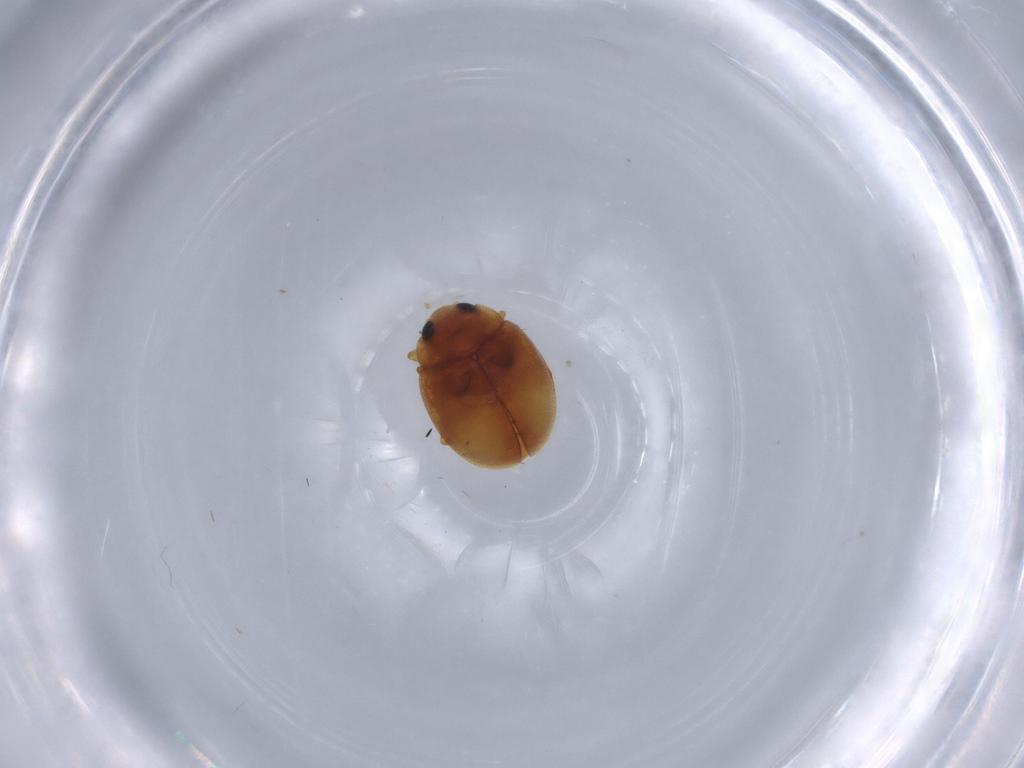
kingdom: Animalia
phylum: Arthropoda
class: Insecta
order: Coleoptera
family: Coccinellidae
